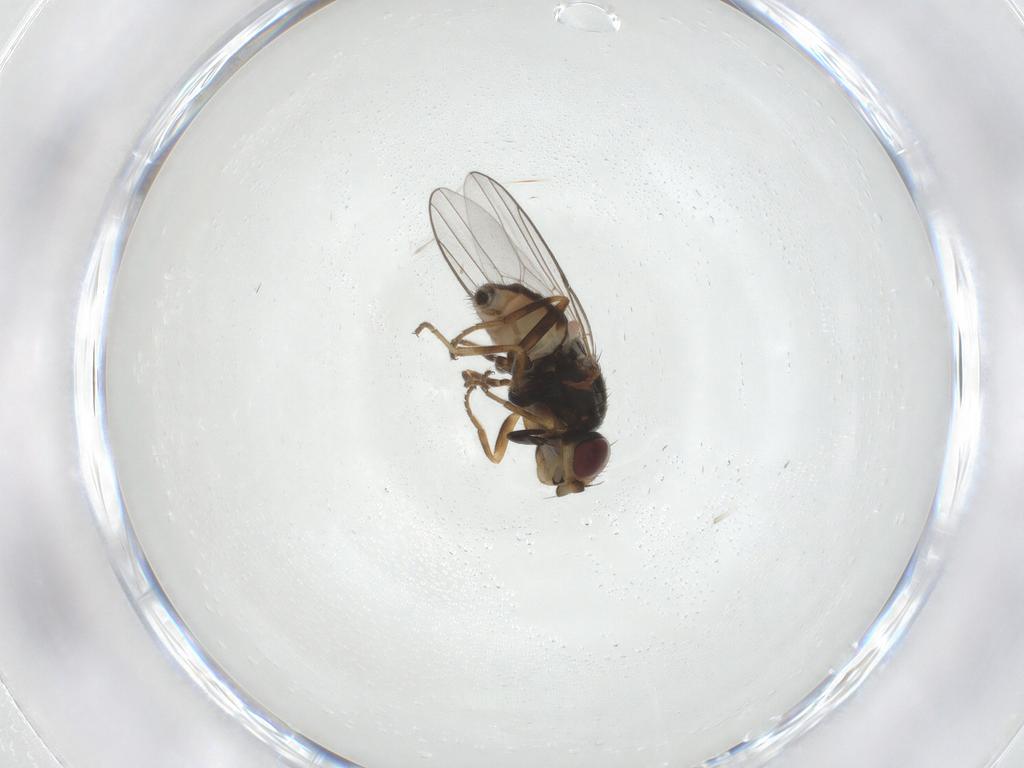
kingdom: Animalia
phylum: Arthropoda
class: Insecta
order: Diptera
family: Chloropidae
